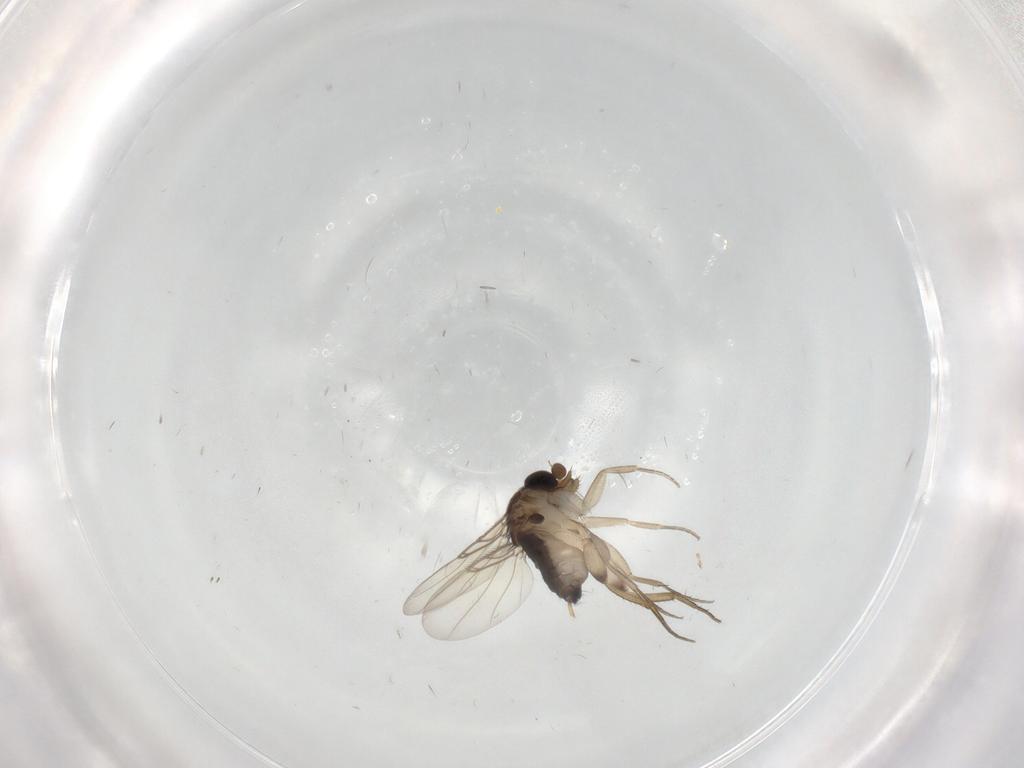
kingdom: Animalia
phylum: Arthropoda
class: Insecta
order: Diptera
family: Phoridae
